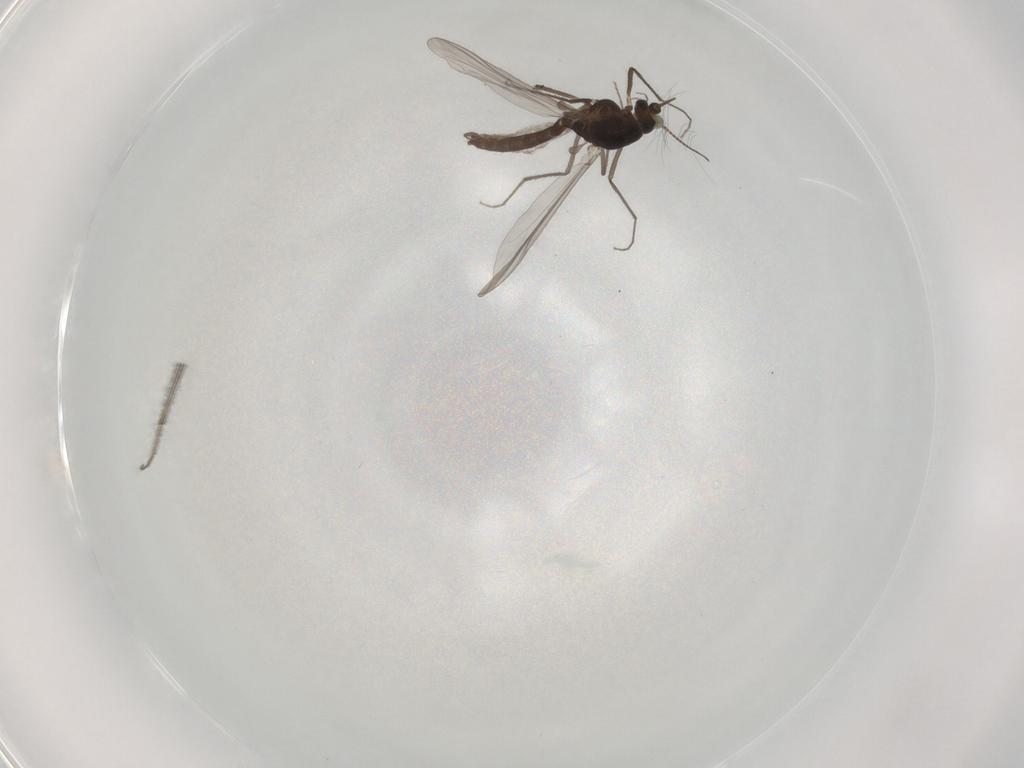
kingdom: Animalia
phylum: Arthropoda
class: Insecta
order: Diptera
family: Chironomidae
